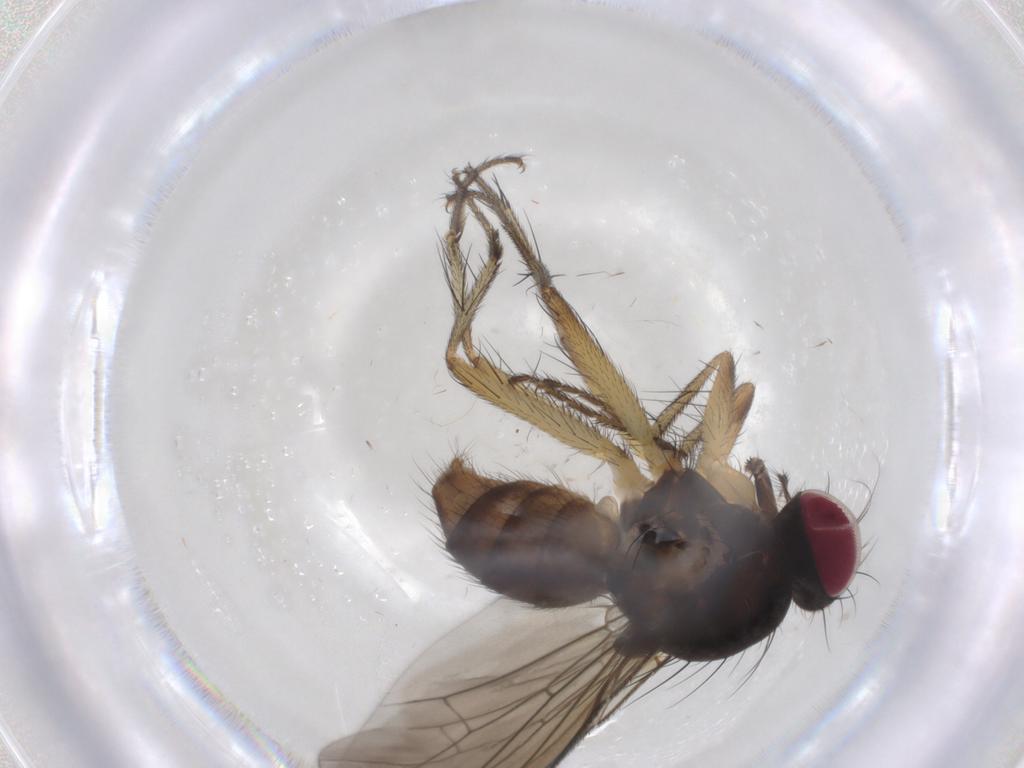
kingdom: Animalia
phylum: Arthropoda
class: Insecta
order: Diptera
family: Anthomyiidae
